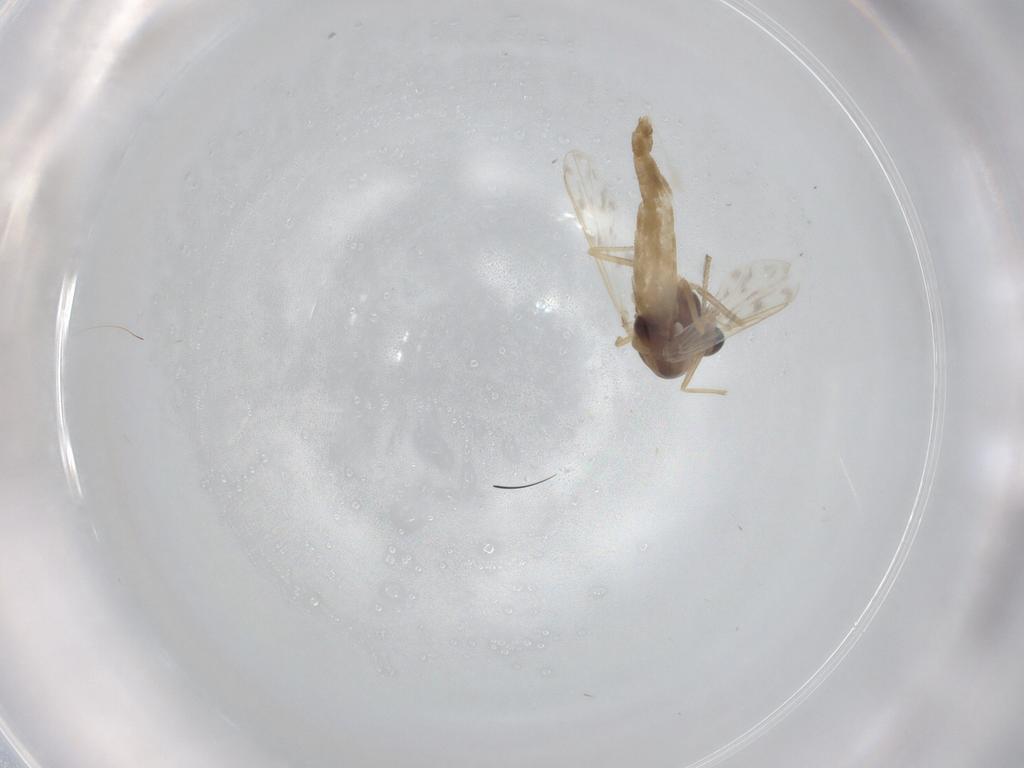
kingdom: Animalia
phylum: Arthropoda
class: Insecta
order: Diptera
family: Chironomidae
